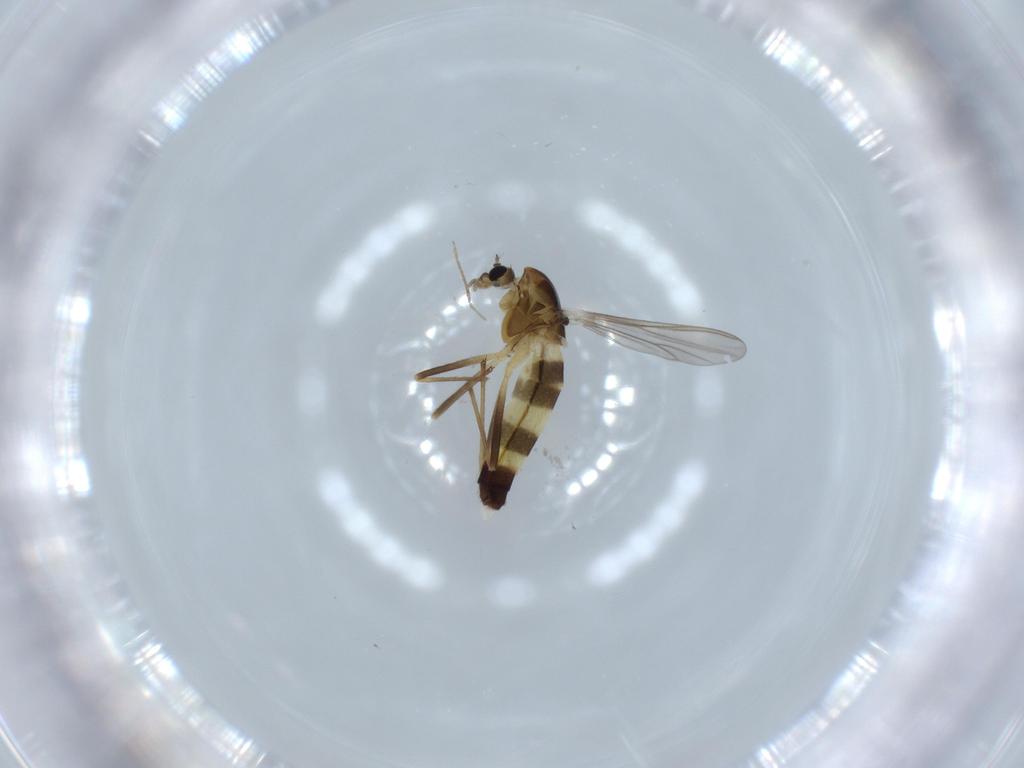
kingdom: Animalia
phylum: Arthropoda
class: Insecta
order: Diptera
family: Chironomidae
